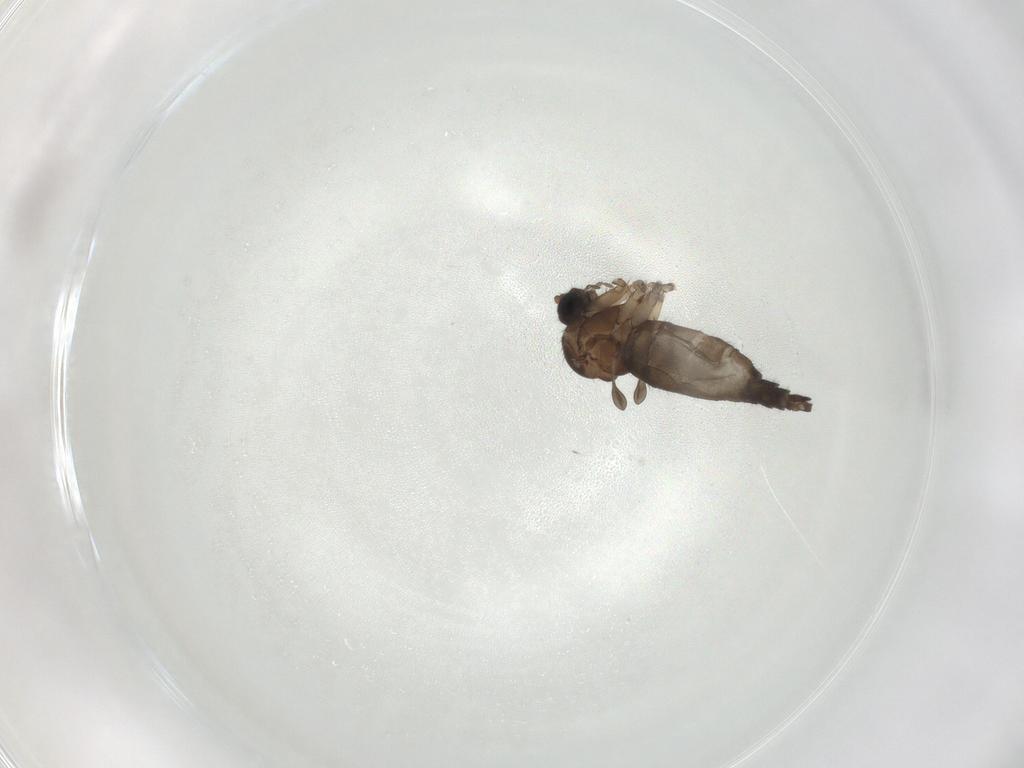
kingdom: Animalia
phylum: Arthropoda
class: Insecta
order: Diptera
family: Sciaridae
